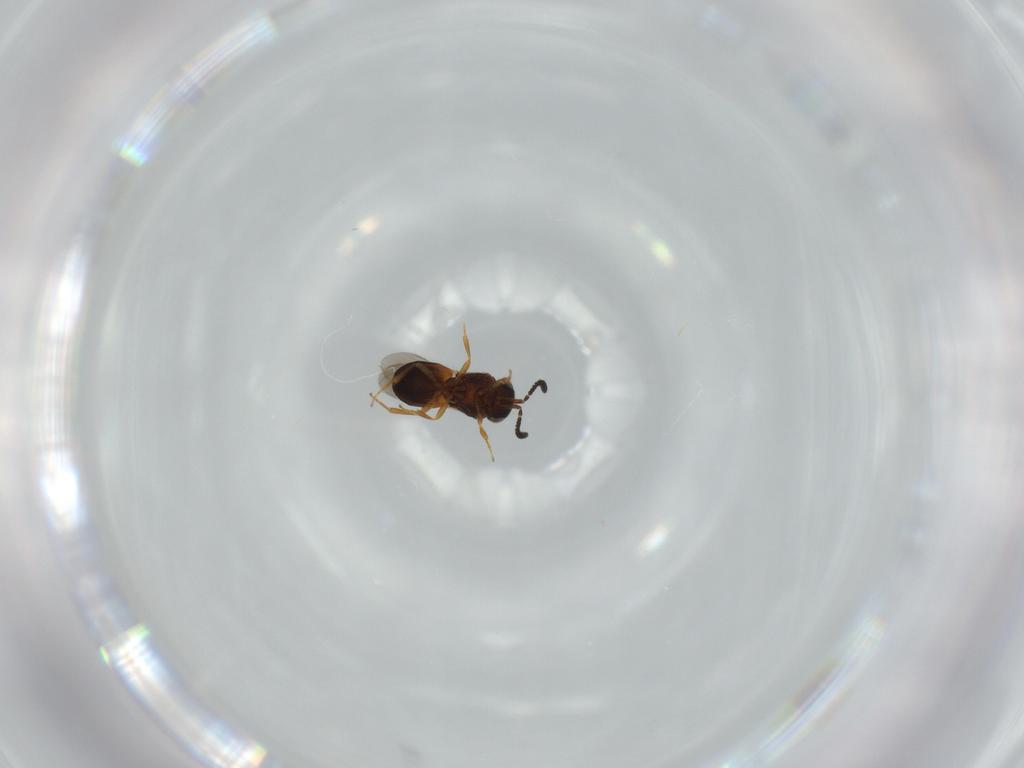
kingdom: Animalia
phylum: Arthropoda
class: Insecta
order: Hymenoptera
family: Scelionidae
